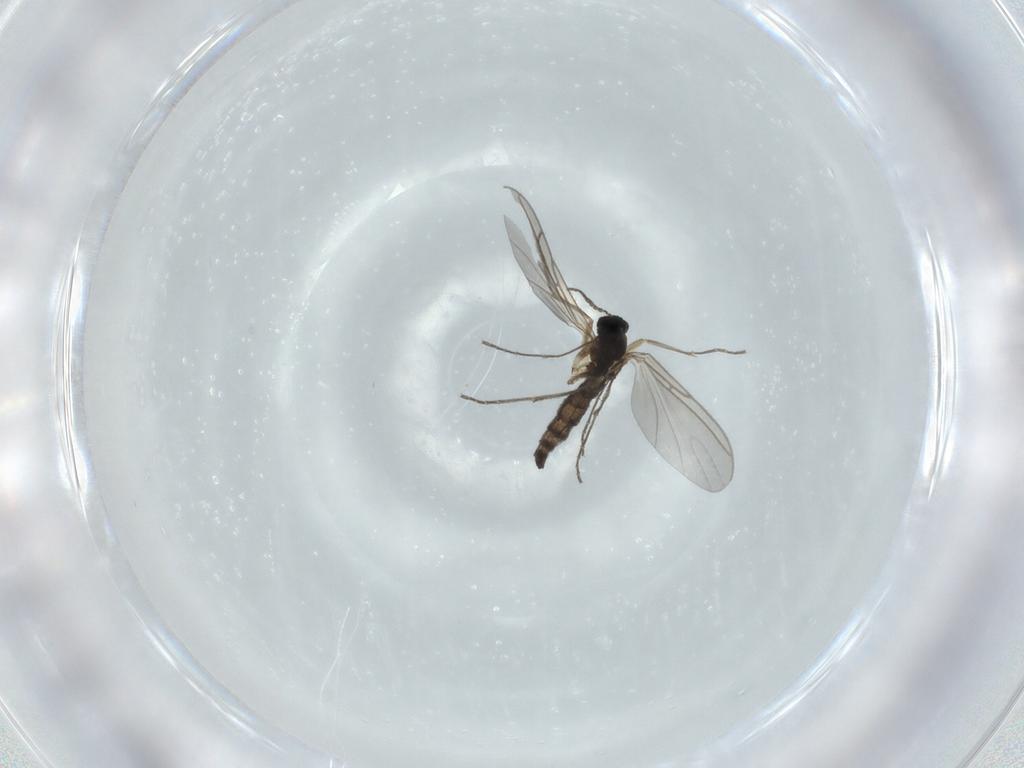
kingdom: Animalia
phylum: Arthropoda
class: Insecta
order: Diptera
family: Sciaridae
